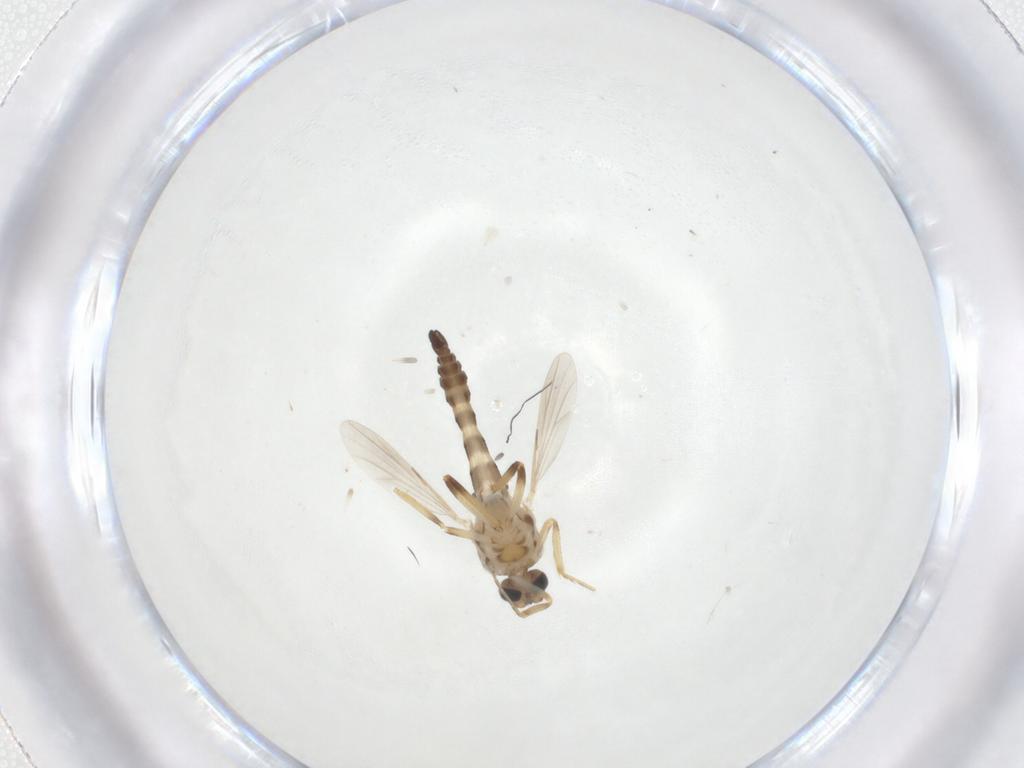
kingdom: Animalia
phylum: Arthropoda
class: Insecta
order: Diptera
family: Ceratopogonidae
